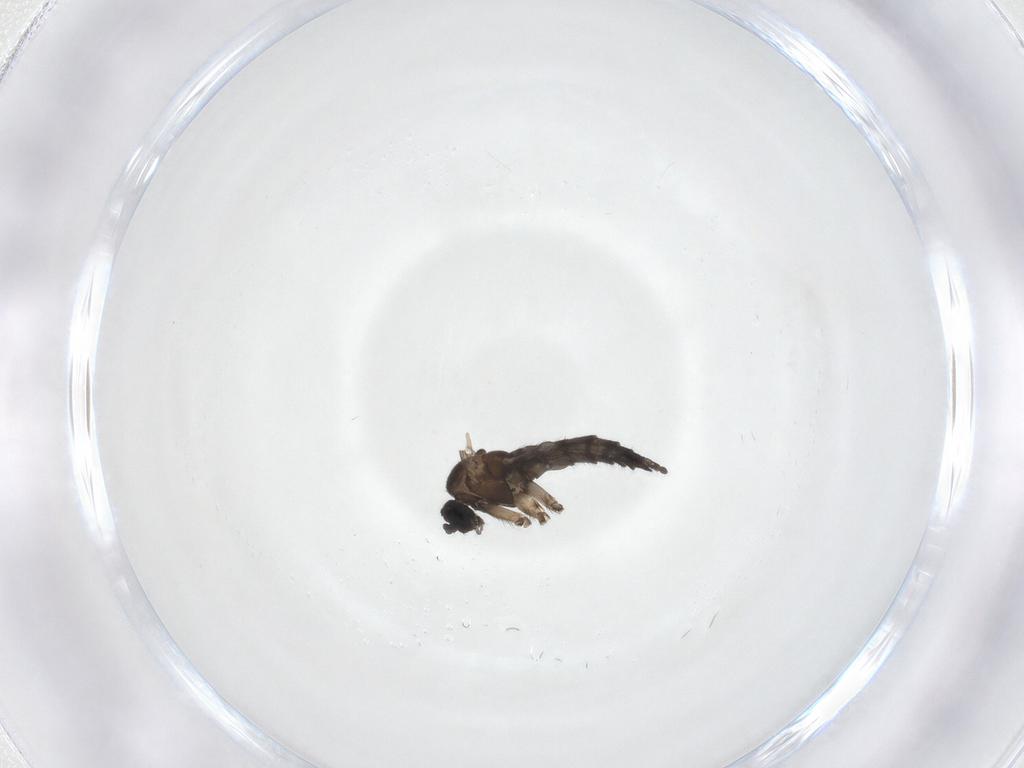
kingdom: Animalia
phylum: Arthropoda
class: Insecta
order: Diptera
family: Sciaridae
